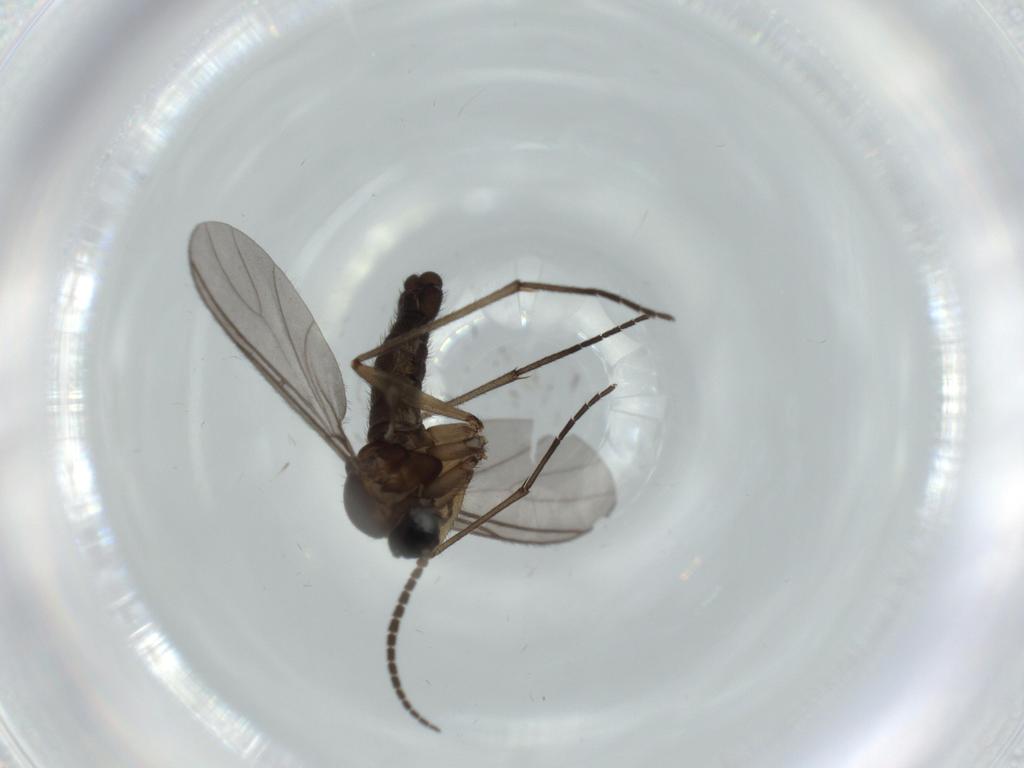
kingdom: Animalia
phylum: Arthropoda
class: Insecta
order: Diptera
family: Sciaridae
